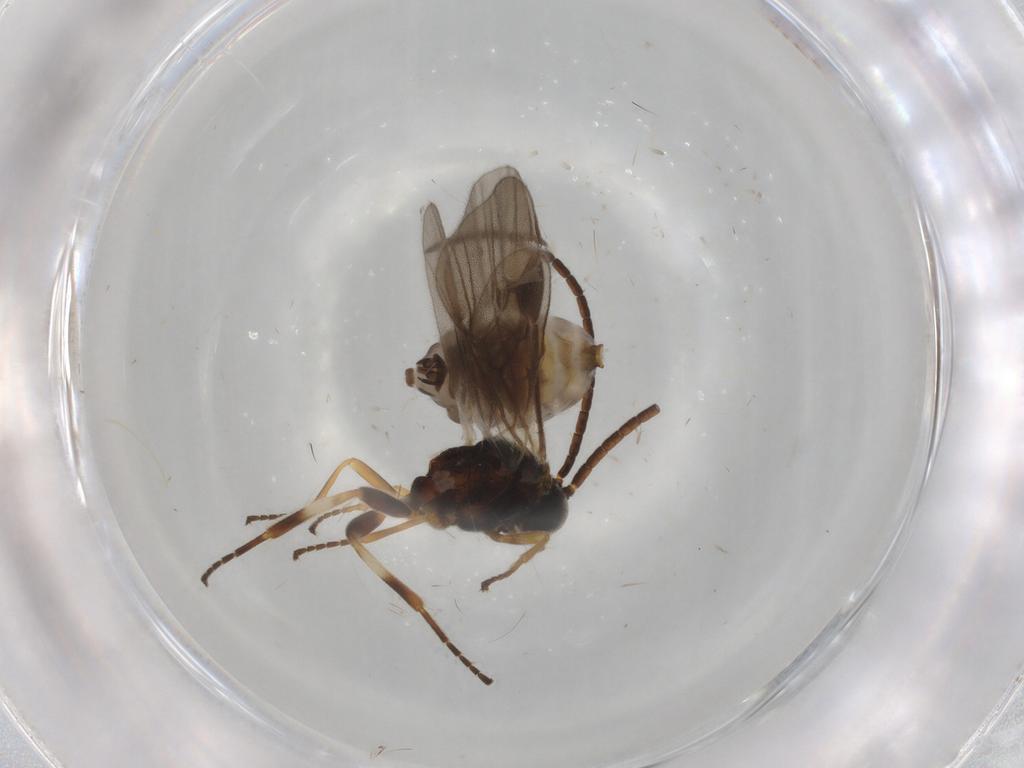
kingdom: Animalia
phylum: Arthropoda
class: Insecta
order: Hymenoptera
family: Braconidae
